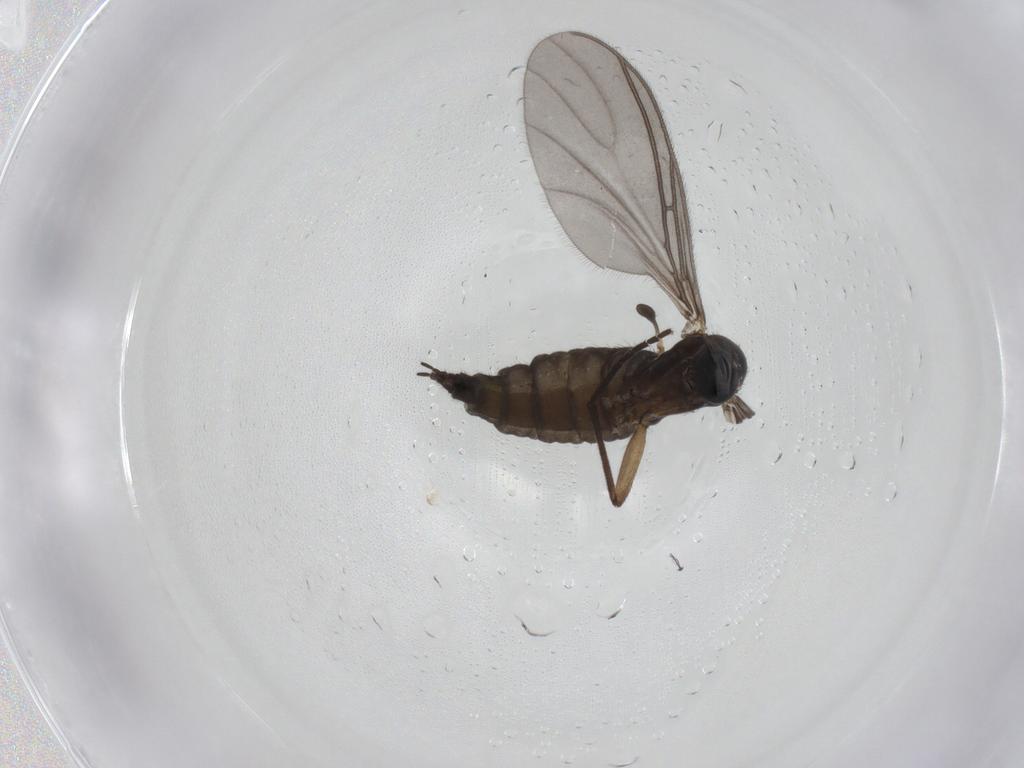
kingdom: Animalia
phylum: Arthropoda
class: Insecta
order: Diptera
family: Sciaridae
